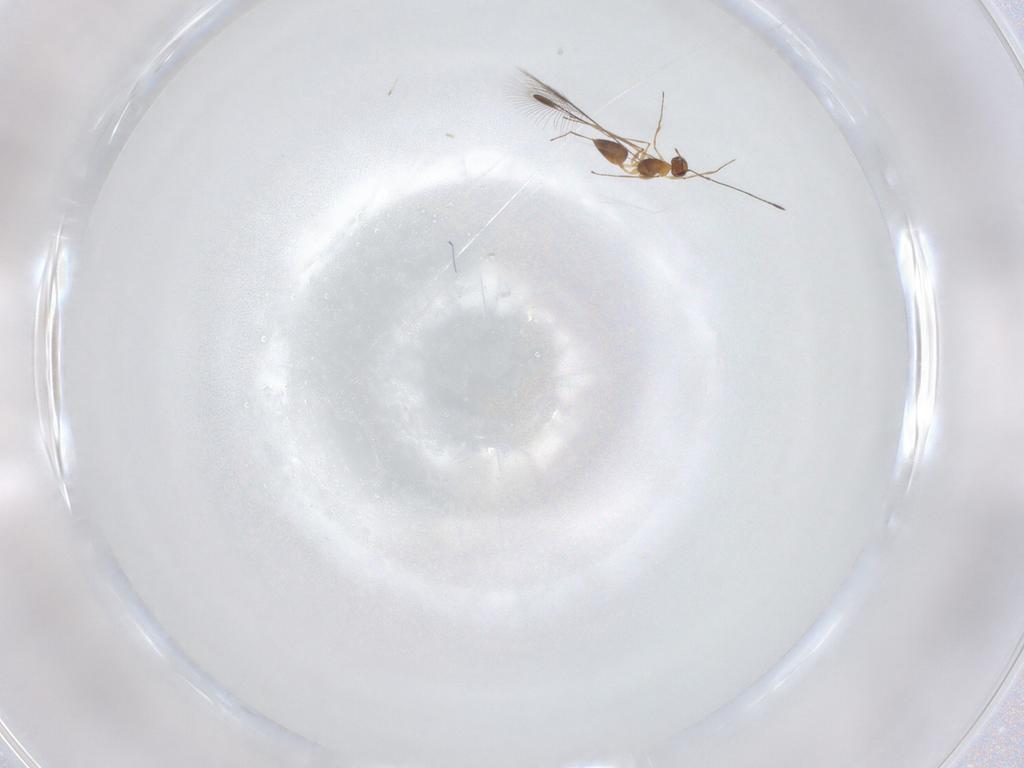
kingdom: Animalia
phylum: Arthropoda
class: Insecta
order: Hymenoptera
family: Mymaridae
